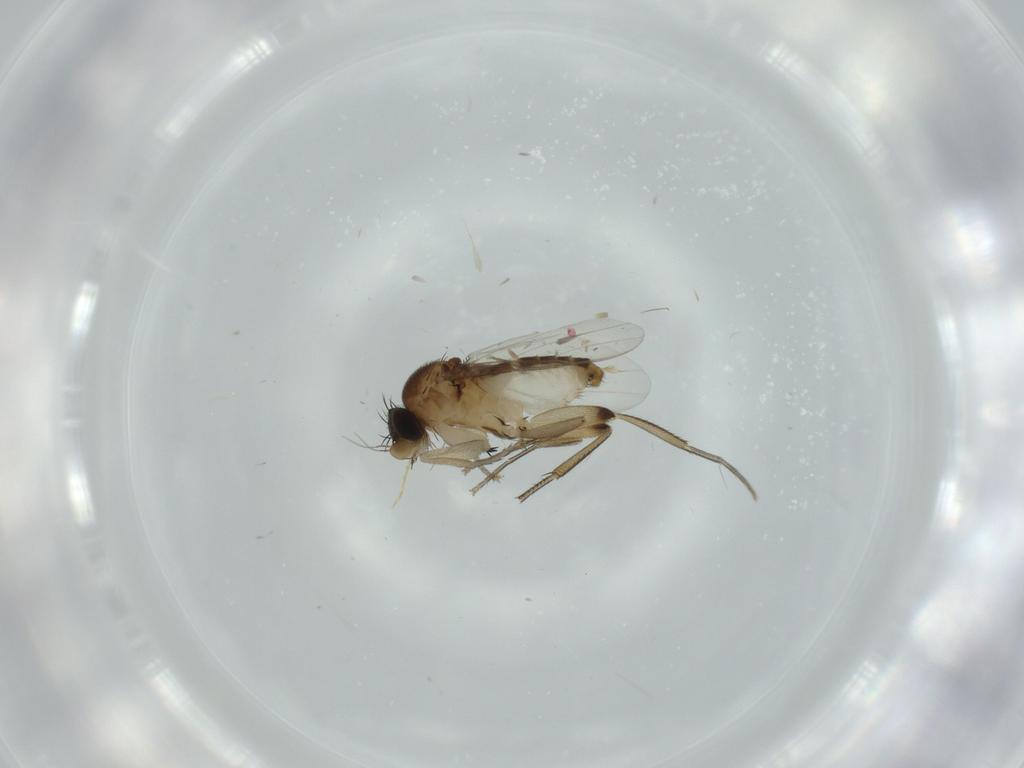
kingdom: Animalia
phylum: Arthropoda
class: Insecta
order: Diptera
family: Phoridae
